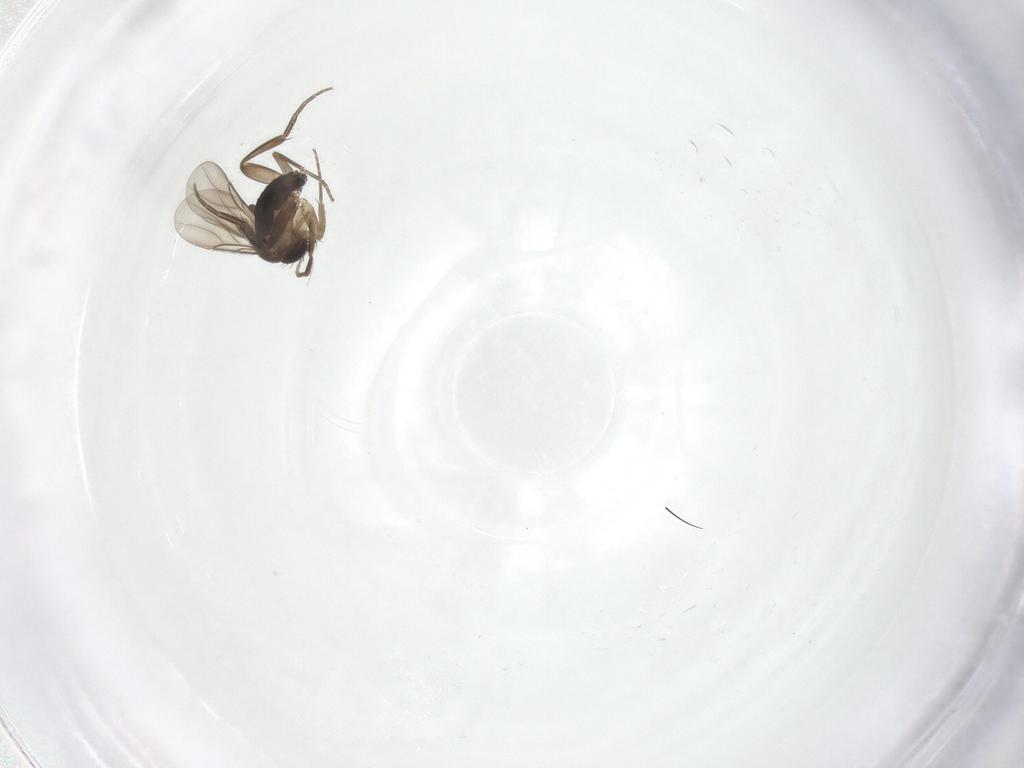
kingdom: Animalia
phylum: Arthropoda
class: Insecta
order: Diptera
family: Phoridae
